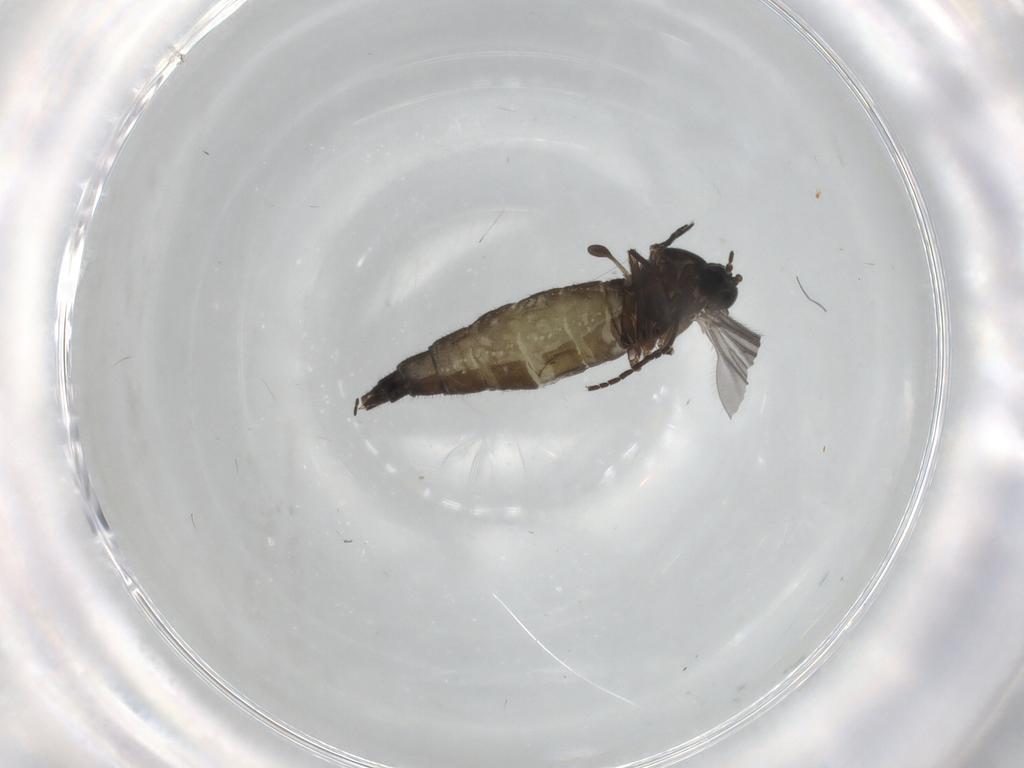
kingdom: Animalia
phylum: Arthropoda
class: Insecta
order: Diptera
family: Sciaridae
